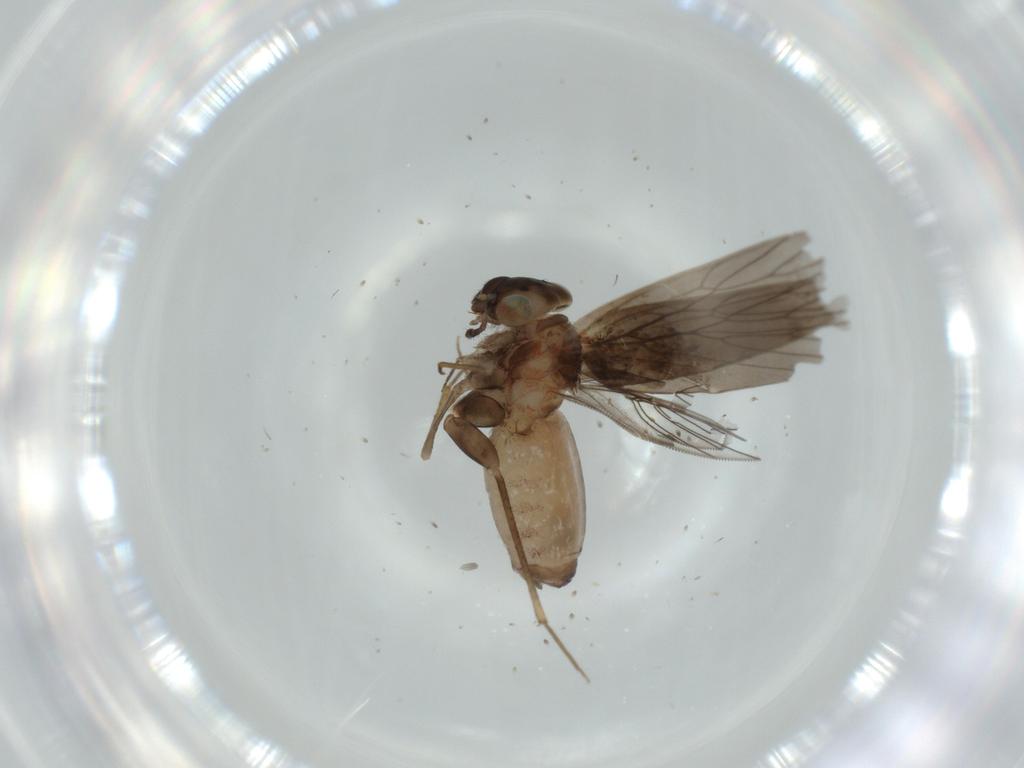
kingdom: Animalia
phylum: Arthropoda
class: Insecta
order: Psocodea
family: Lepidopsocidae
